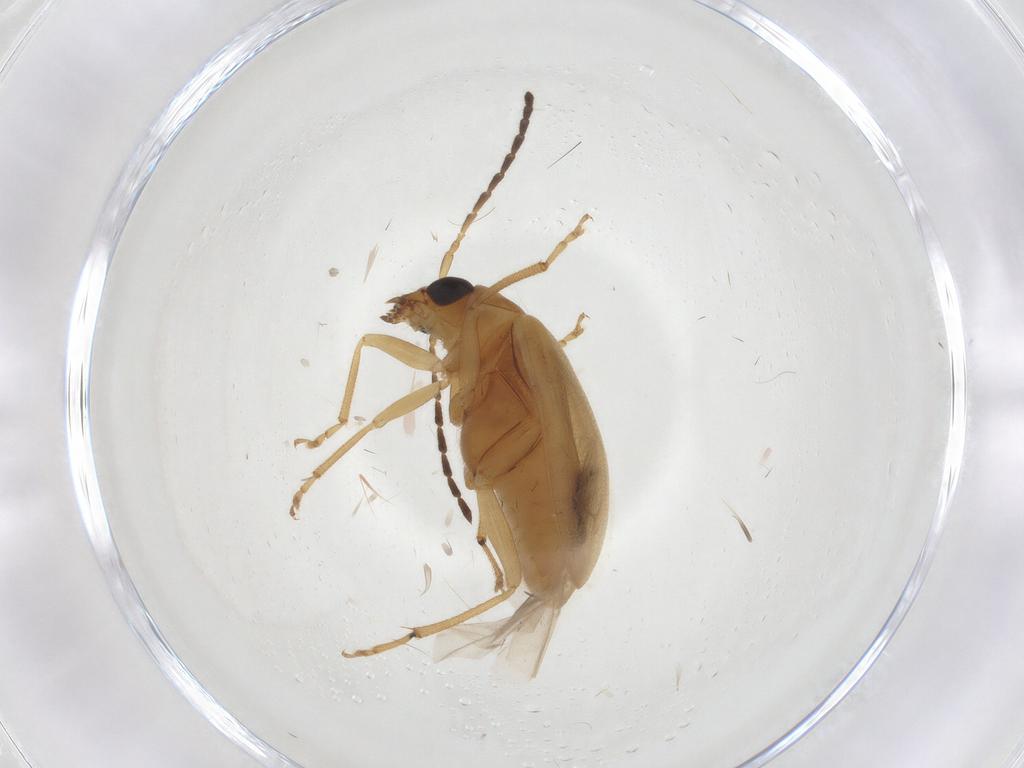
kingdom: Animalia
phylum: Arthropoda
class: Insecta
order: Coleoptera
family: Chrysomelidae
